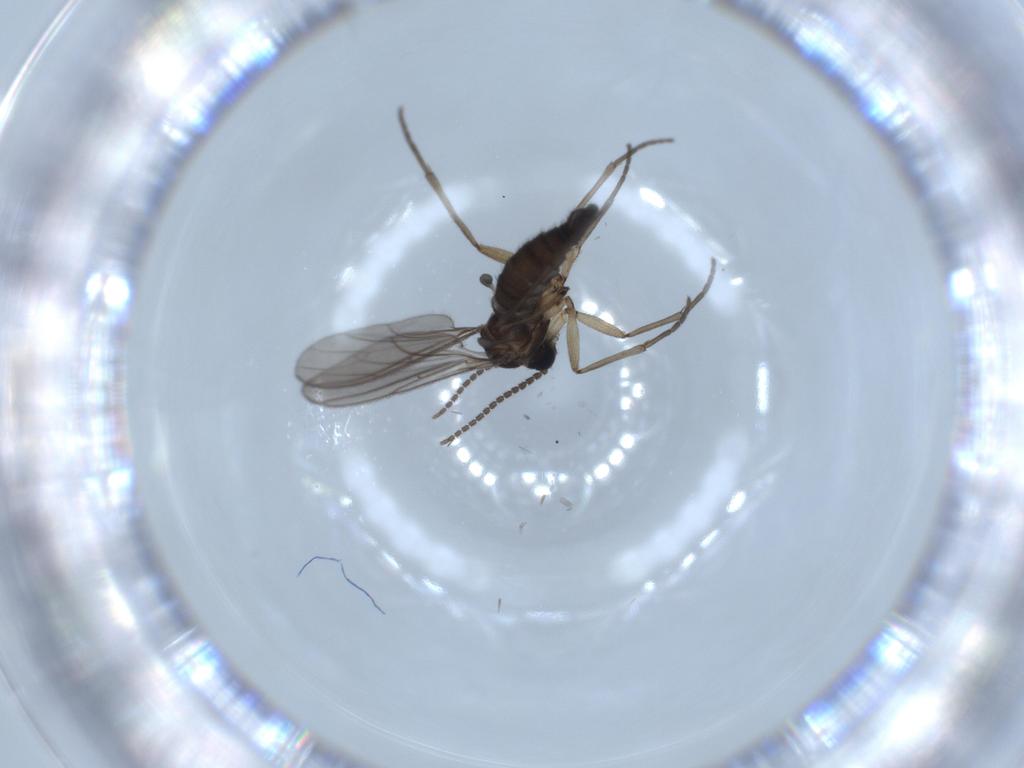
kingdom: Animalia
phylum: Arthropoda
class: Insecta
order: Diptera
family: Sciaridae
